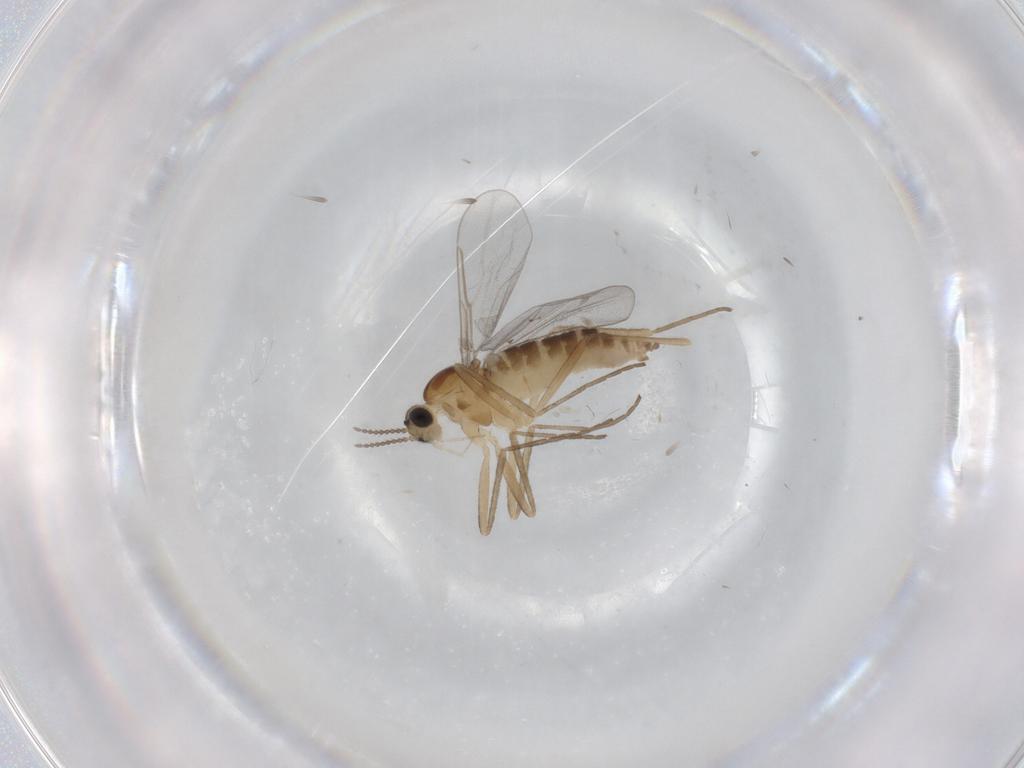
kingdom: Animalia
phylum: Arthropoda
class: Insecta
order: Diptera
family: Cecidomyiidae
